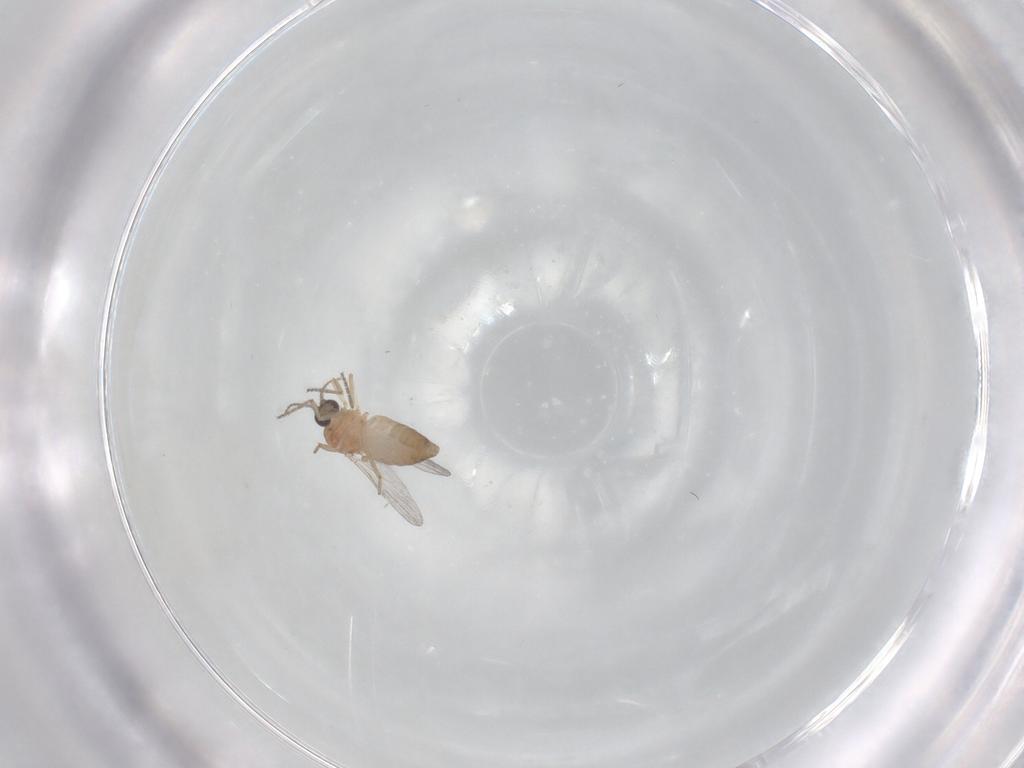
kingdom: Animalia
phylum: Arthropoda
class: Insecta
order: Diptera
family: Ceratopogonidae
